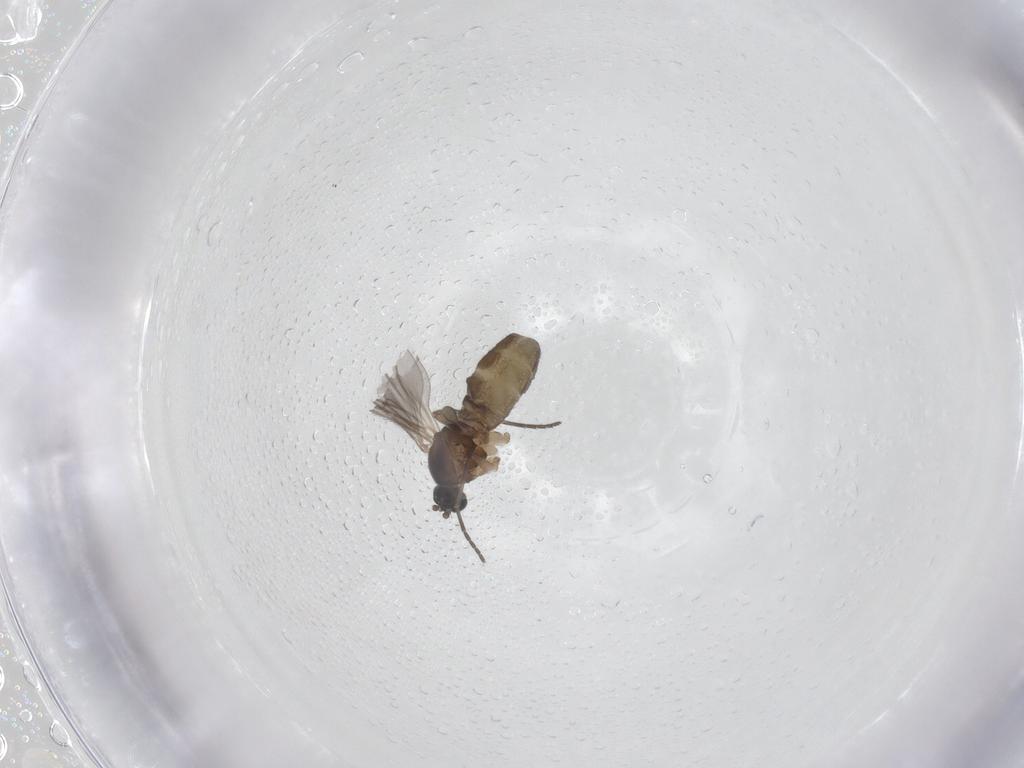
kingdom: Animalia
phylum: Arthropoda
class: Insecta
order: Diptera
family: Sciaridae
